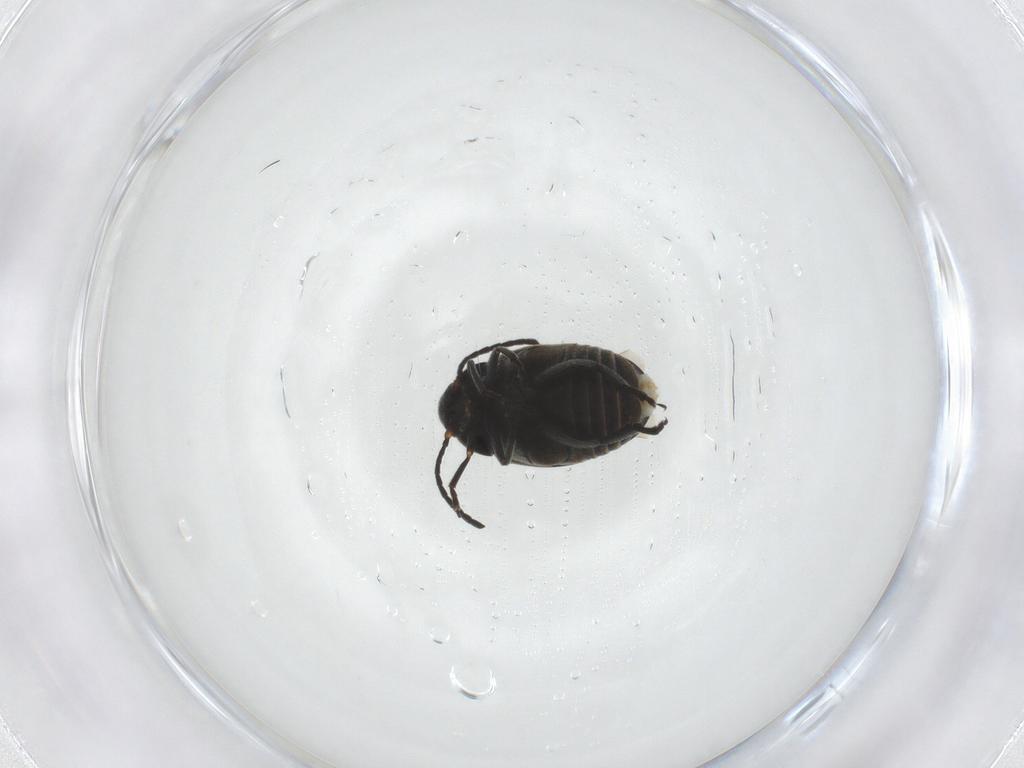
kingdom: Animalia
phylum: Arthropoda
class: Insecta
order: Coleoptera
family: Chrysomelidae
